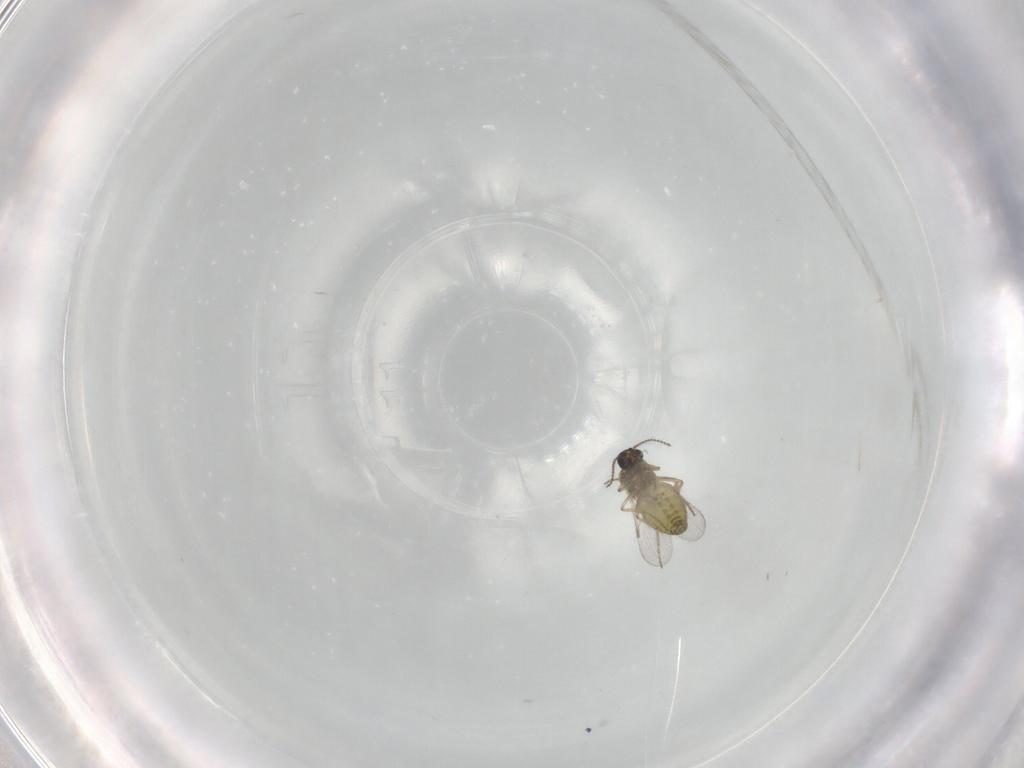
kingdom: Animalia
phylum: Arthropoda
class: Insecta
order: Diptera
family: Ceratopogonidae
